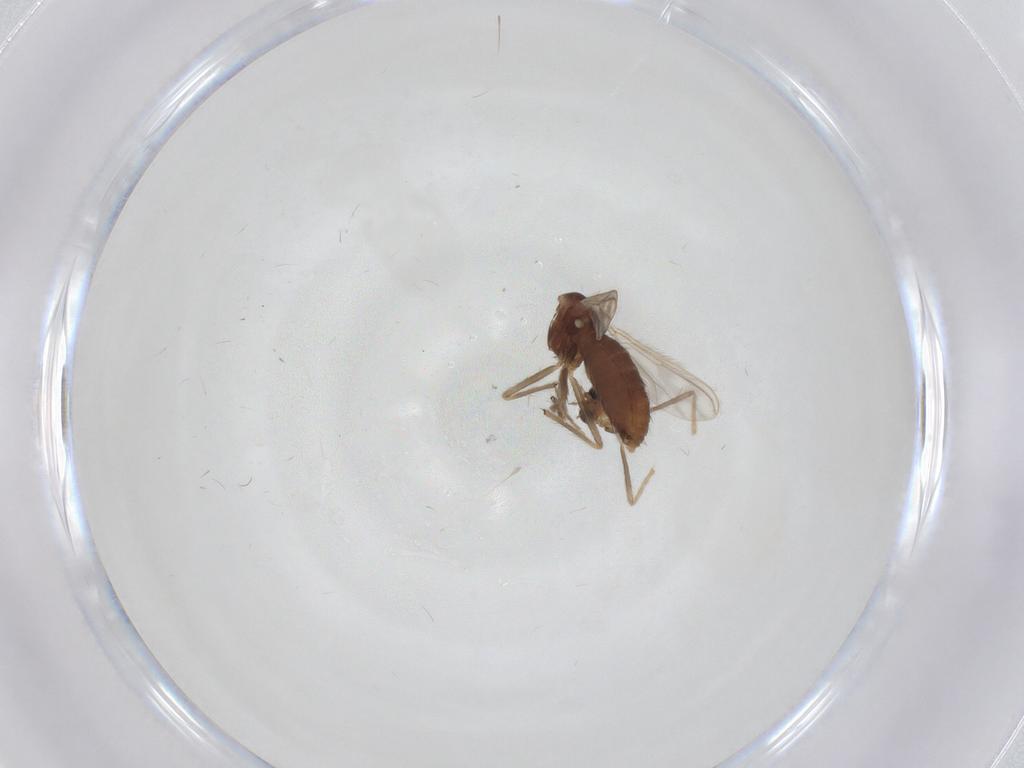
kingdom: Animalia
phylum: Arthropoda
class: Insecta
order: Diptera
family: Chironomidae
